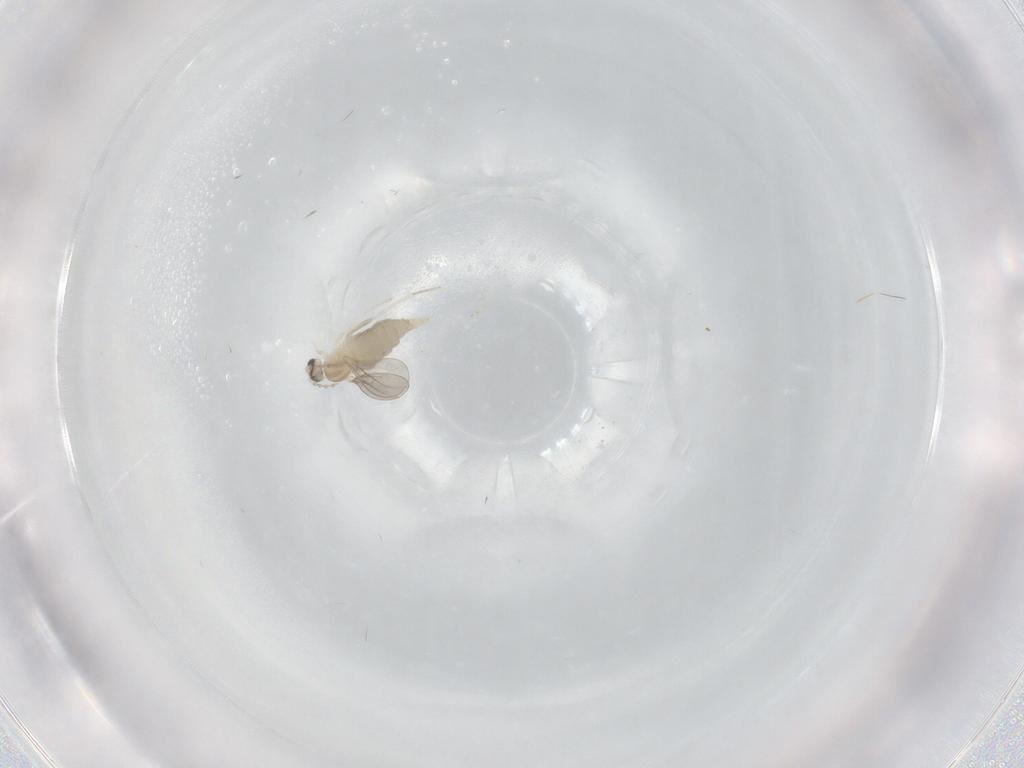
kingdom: Animalia
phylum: Arthropoda
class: Insecta
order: Diptera
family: Cecidomyiidae
